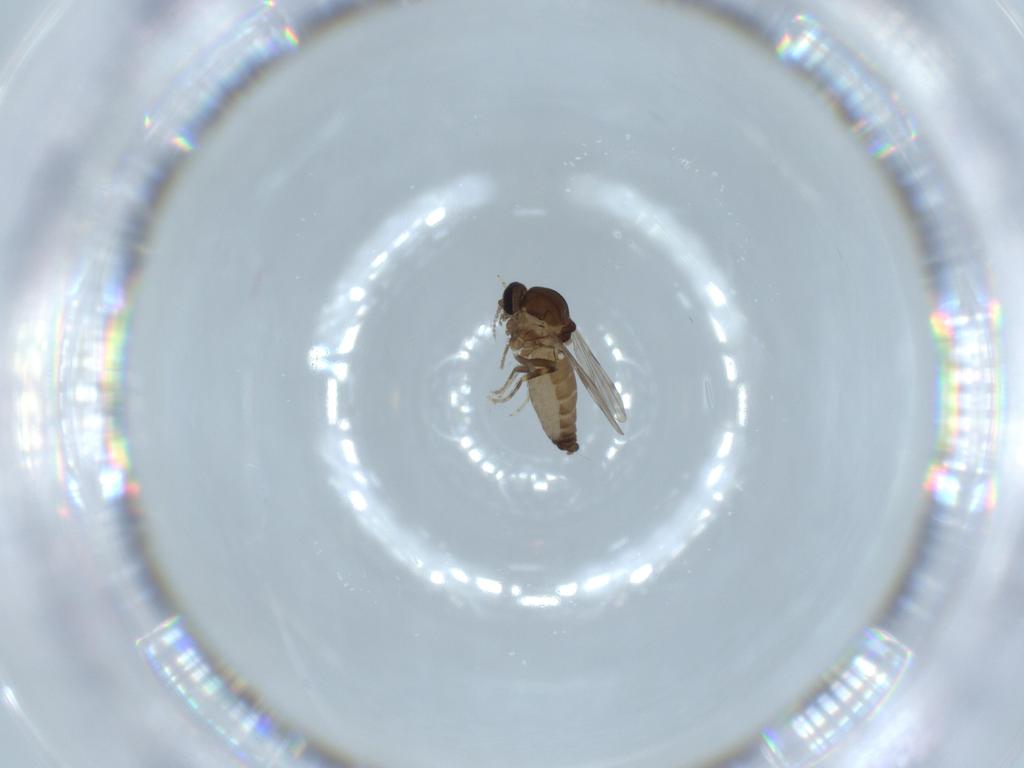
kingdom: Animalia
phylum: Arthropoda
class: Insecta
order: Diptera
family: Ceratopogonidae
